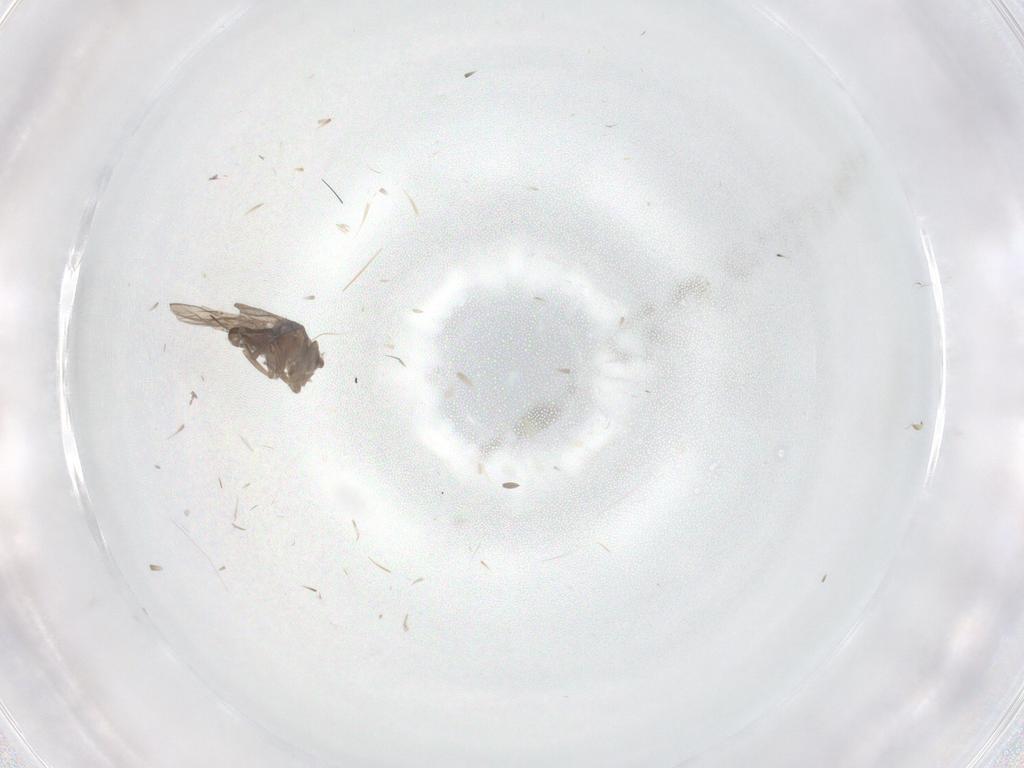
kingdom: Animalia
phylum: Arthropoda
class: Insecta
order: Diptera
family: Cecidomyiidae
